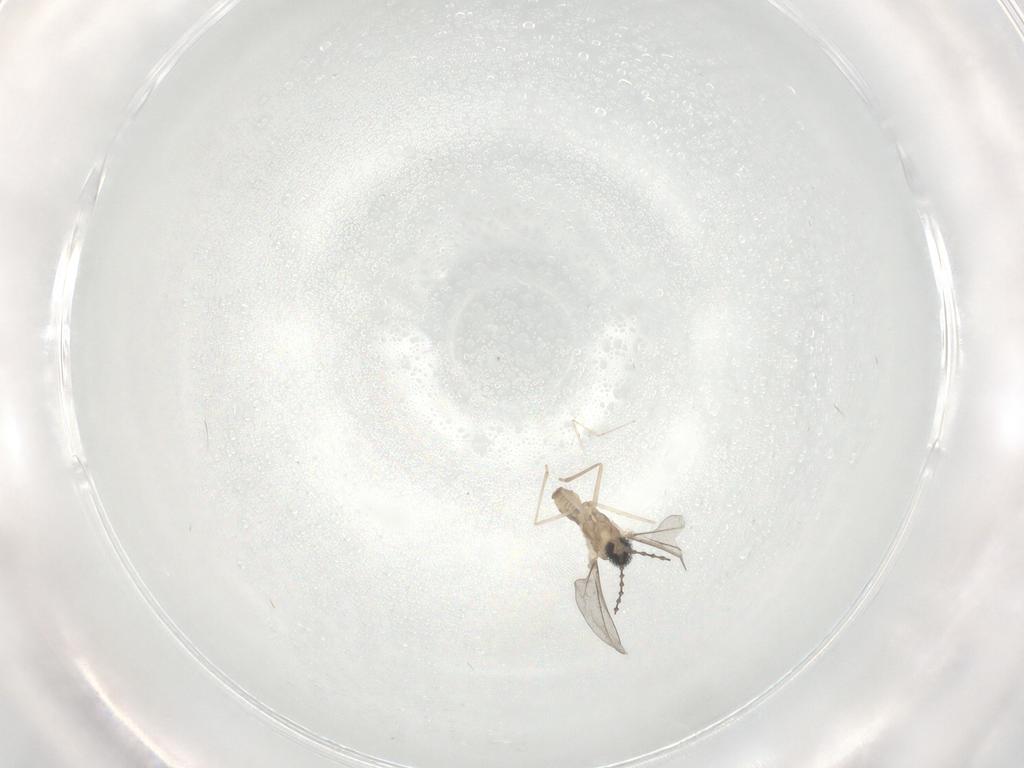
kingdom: Animalia
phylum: Arthropoda
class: Insecta
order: Diptera
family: Cecidomyiidae
